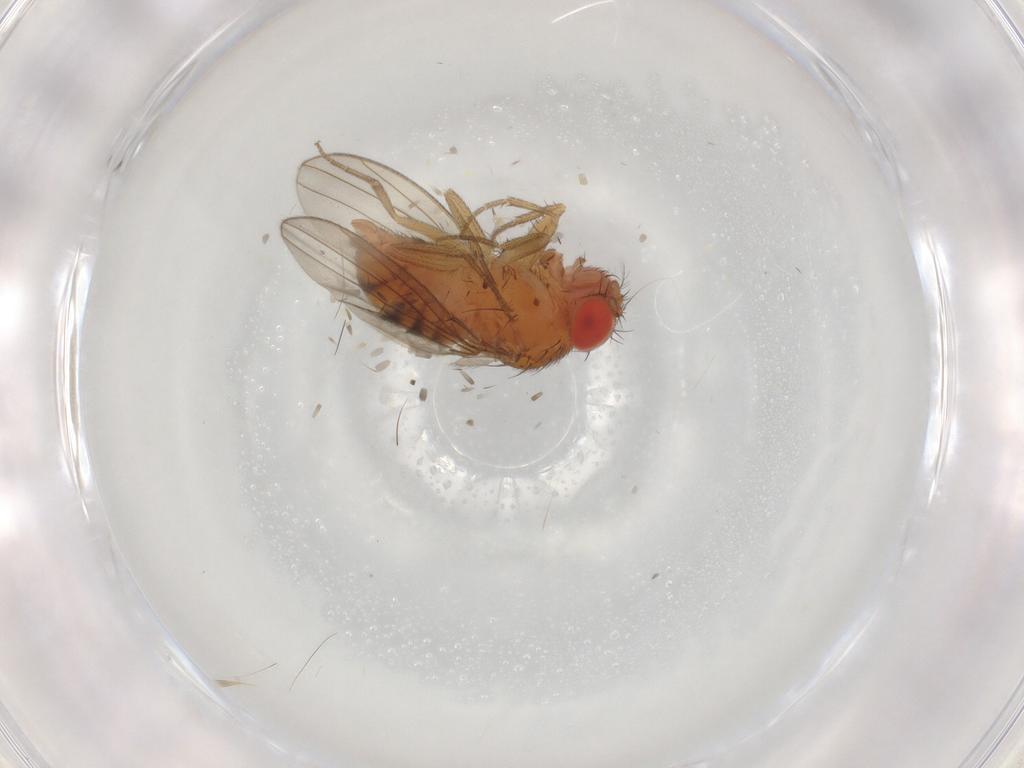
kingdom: Animalia
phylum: Arthropoda
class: Insecta
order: Diptera
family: Drosophilidae
